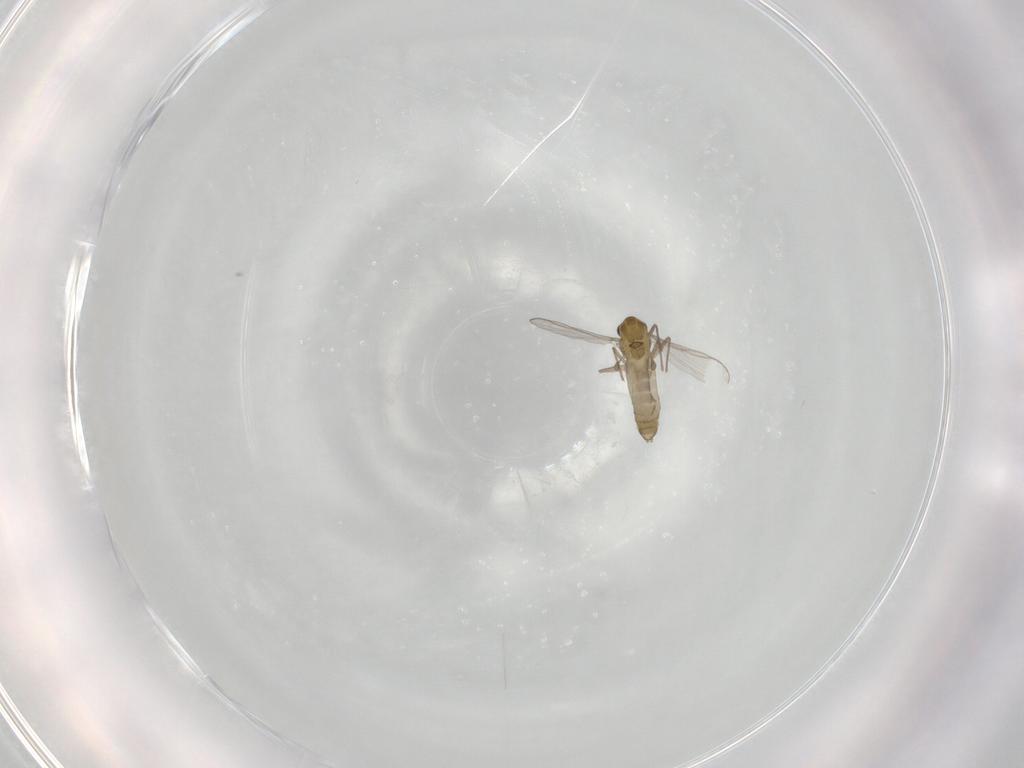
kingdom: Animalia
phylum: Arthropoda
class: Insecta
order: Diptera
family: Chironomidae
